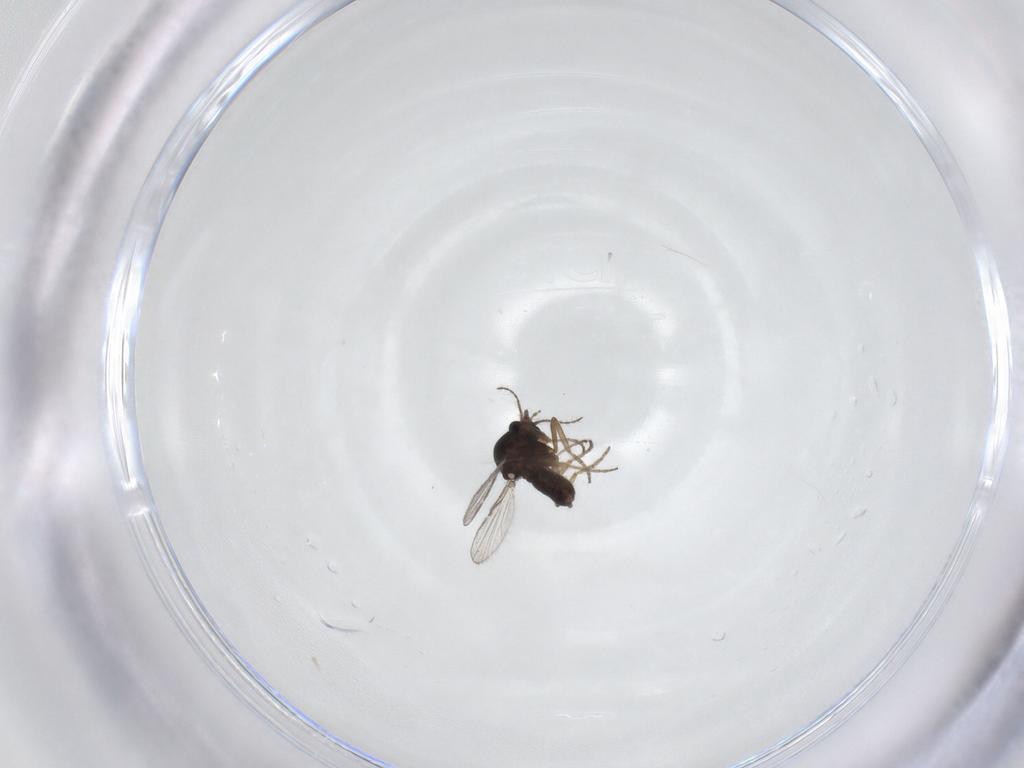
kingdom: Animalia
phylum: Arthropoda
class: Insecta
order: Diptera
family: Ceratopogonidae
